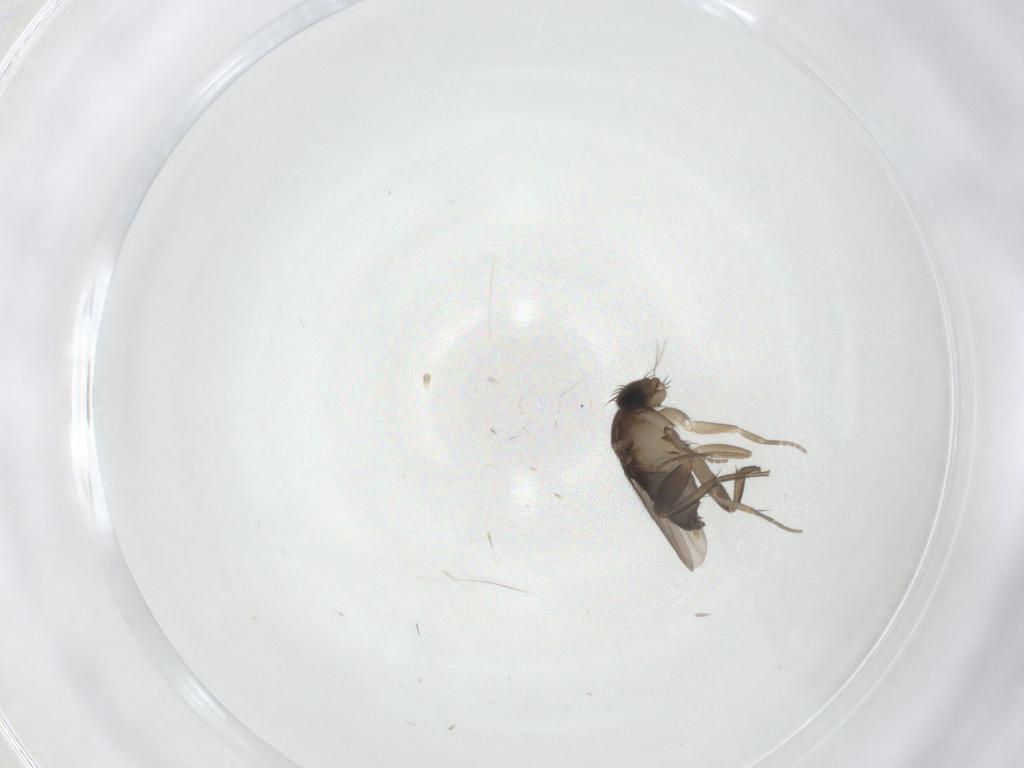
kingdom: Animalia
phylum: Arthropoda
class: Insecta
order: Diptera
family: Phoridae
